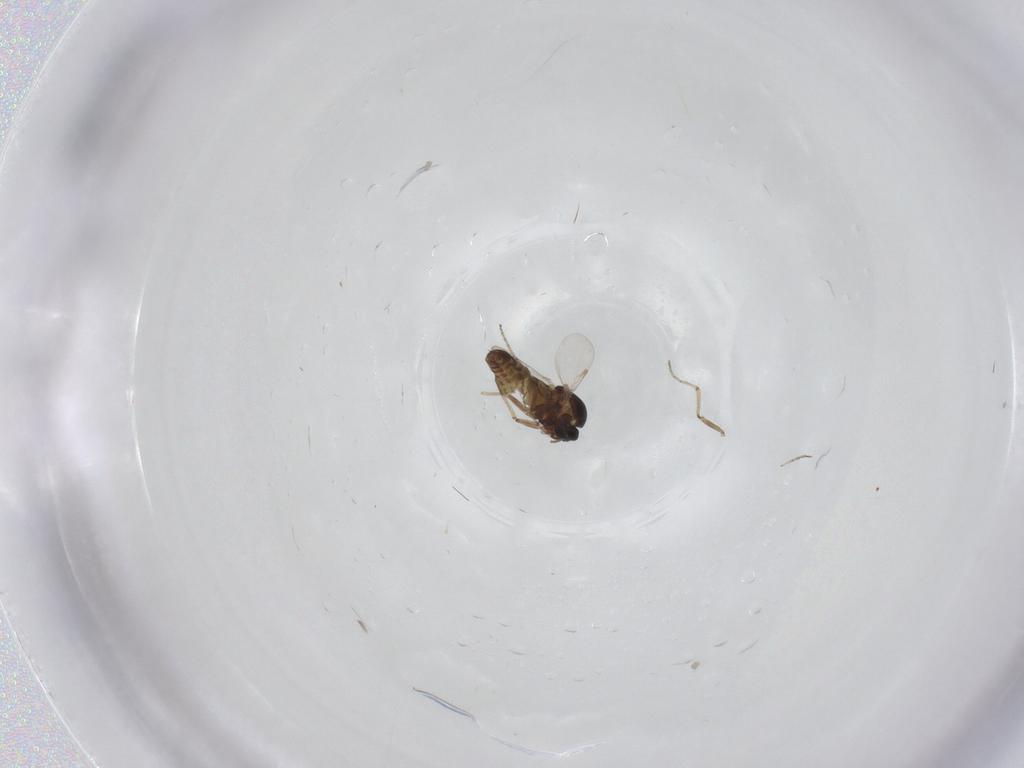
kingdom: Animalia
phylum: Arthropoda
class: Insecta
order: Diptera
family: Ceratopogonidae
